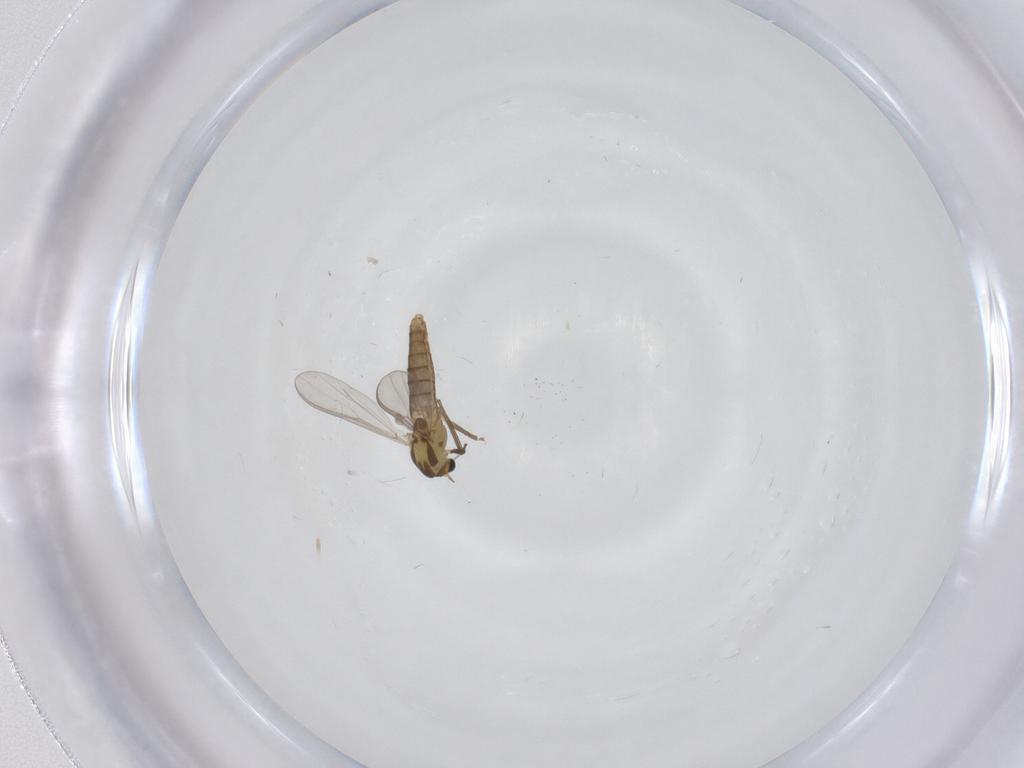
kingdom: Animalia
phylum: Arthropoda
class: Insecta
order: Diptera
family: Chironomidae
